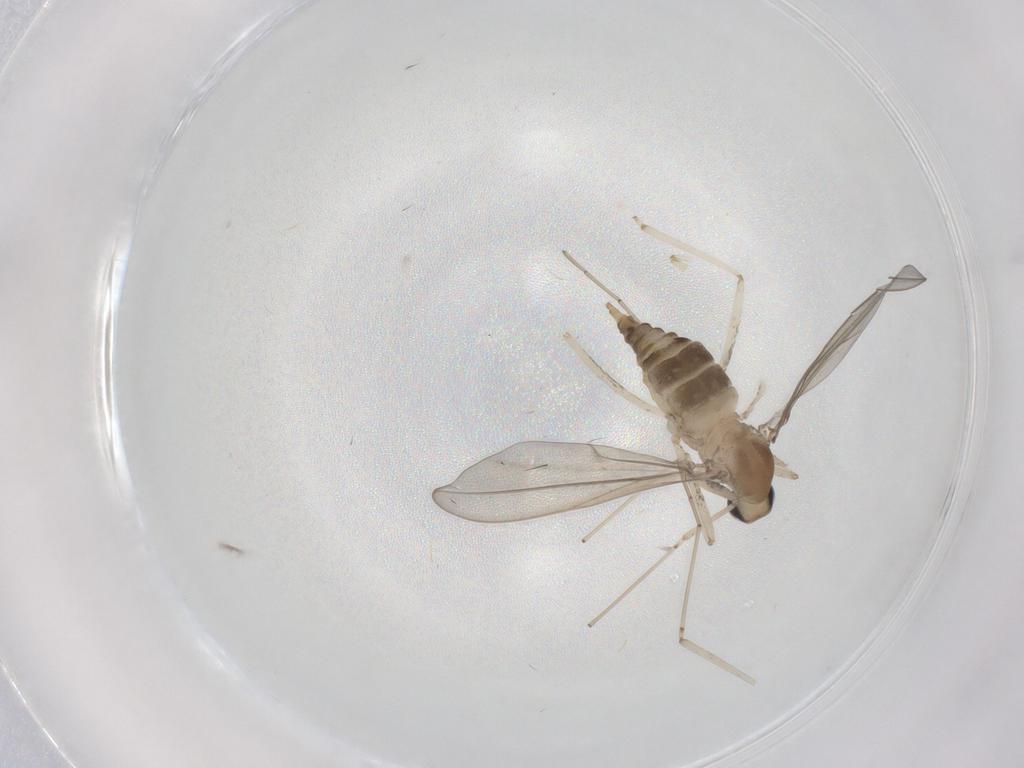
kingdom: Animalia
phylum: Arthropoda
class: Insecta
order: Diptera
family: Cecidomyiidae
